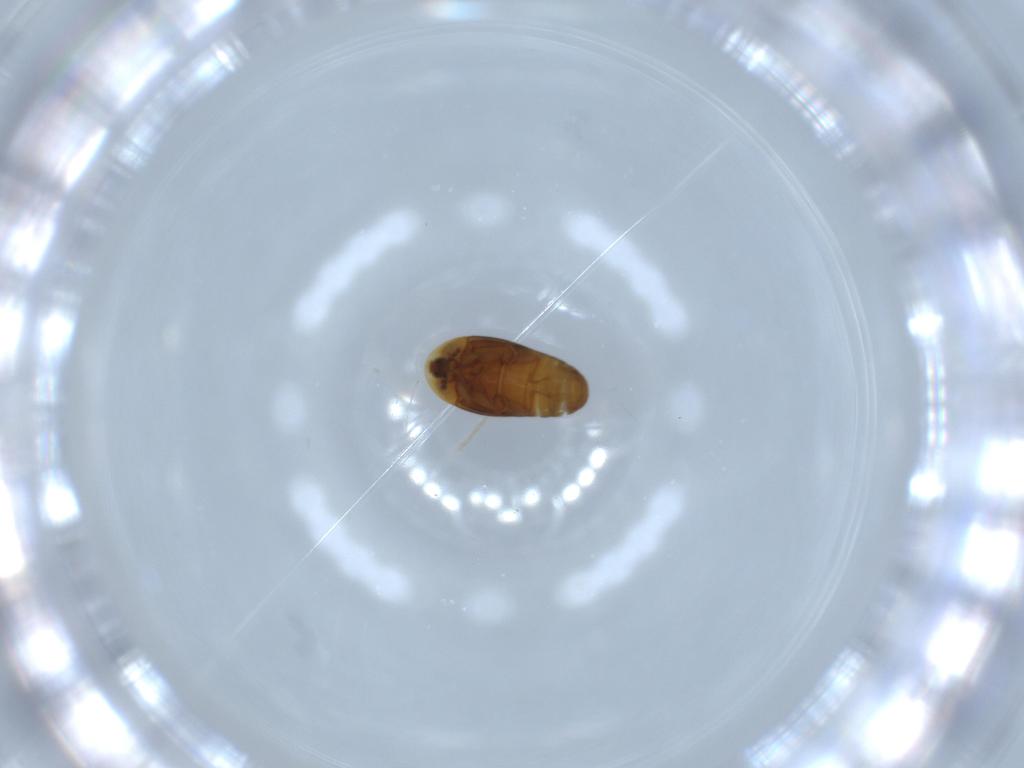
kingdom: Animalia
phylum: Arthropoda
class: Insecta
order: Coleoptera
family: Corylophidae
